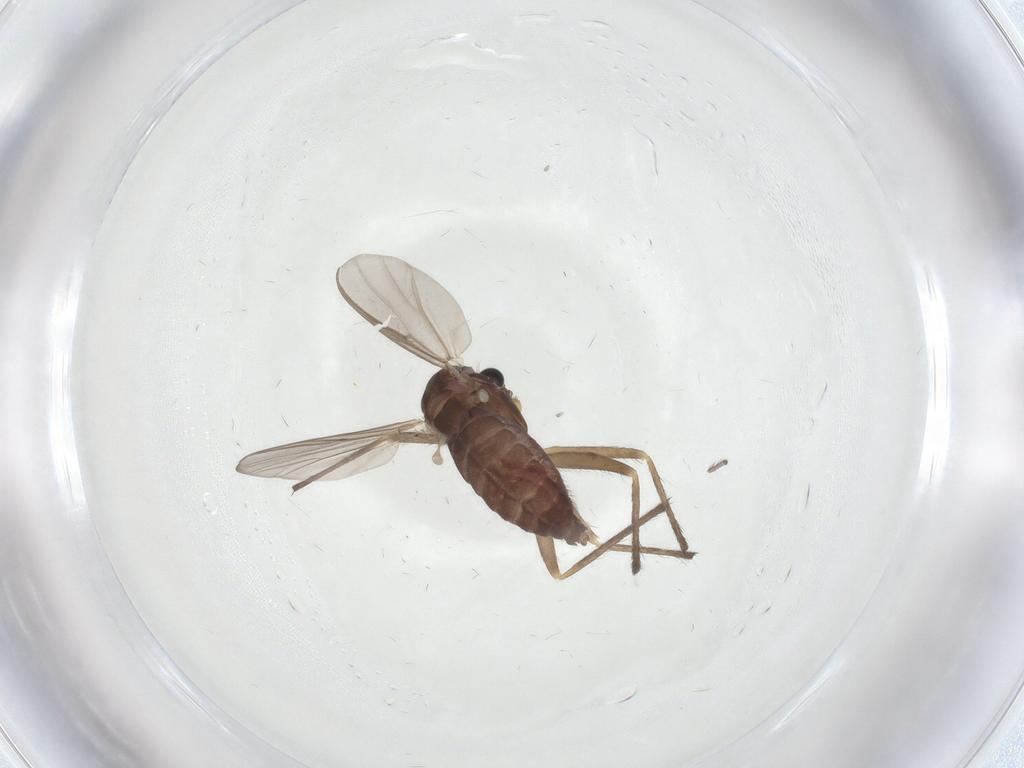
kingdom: Animalia
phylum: Arthropoda
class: Insecta
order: Diptera
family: Chironomidae
